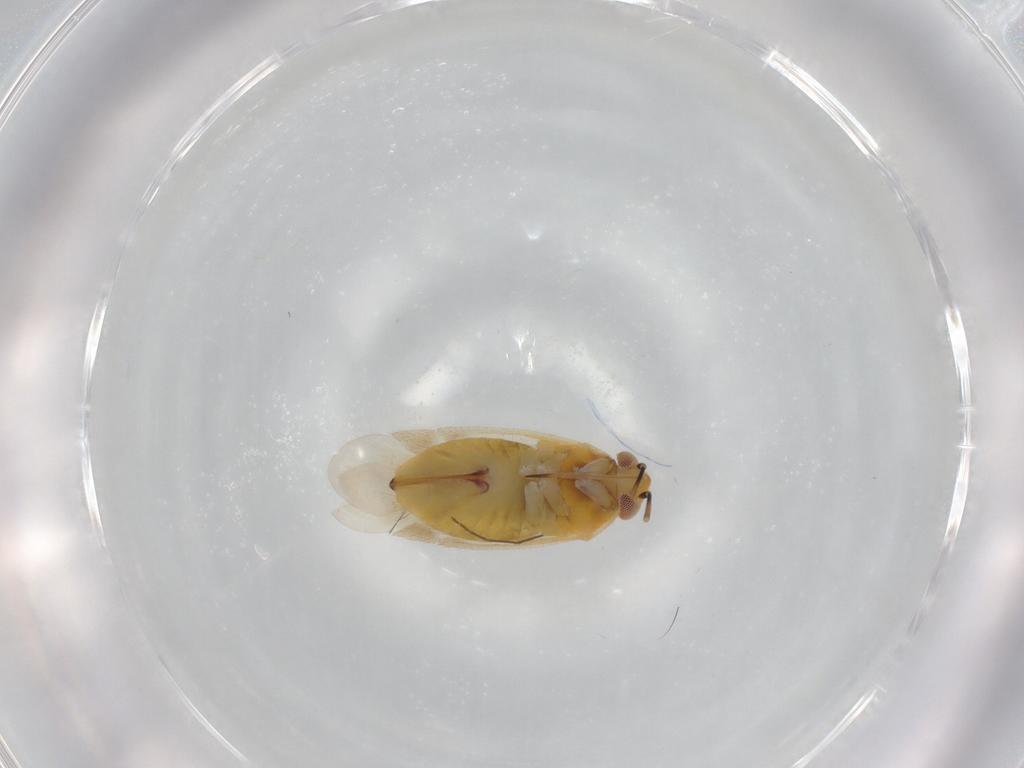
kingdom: Animalia
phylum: Arthropoda
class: Insecta
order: Hemiptera
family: Miridae
